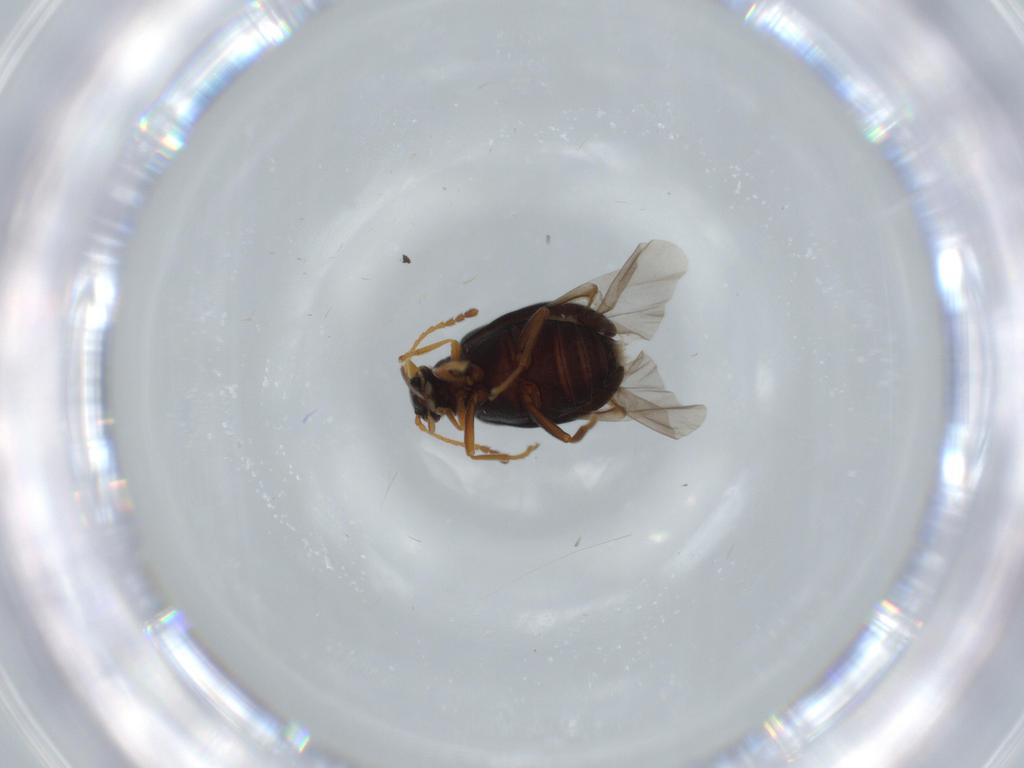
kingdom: Animalia
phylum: Arthropoda
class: Insecta
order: Coleoptera
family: Aderidae
